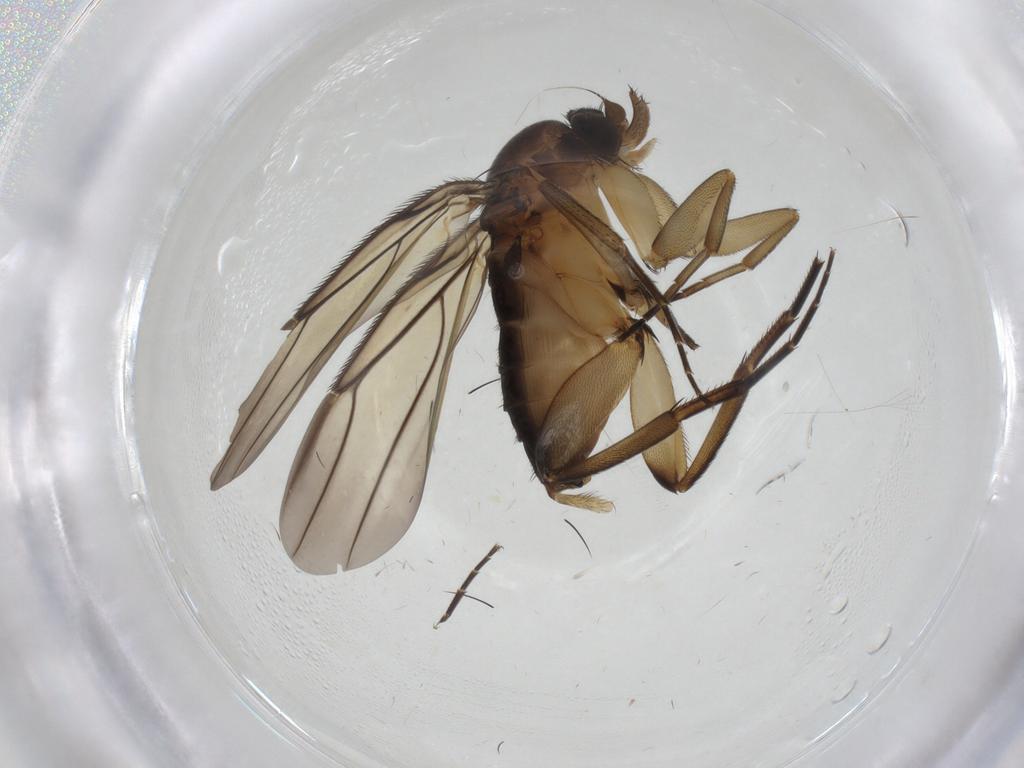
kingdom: Animalia
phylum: Arthropoda
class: Insecta
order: Diptera
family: Phoridae
